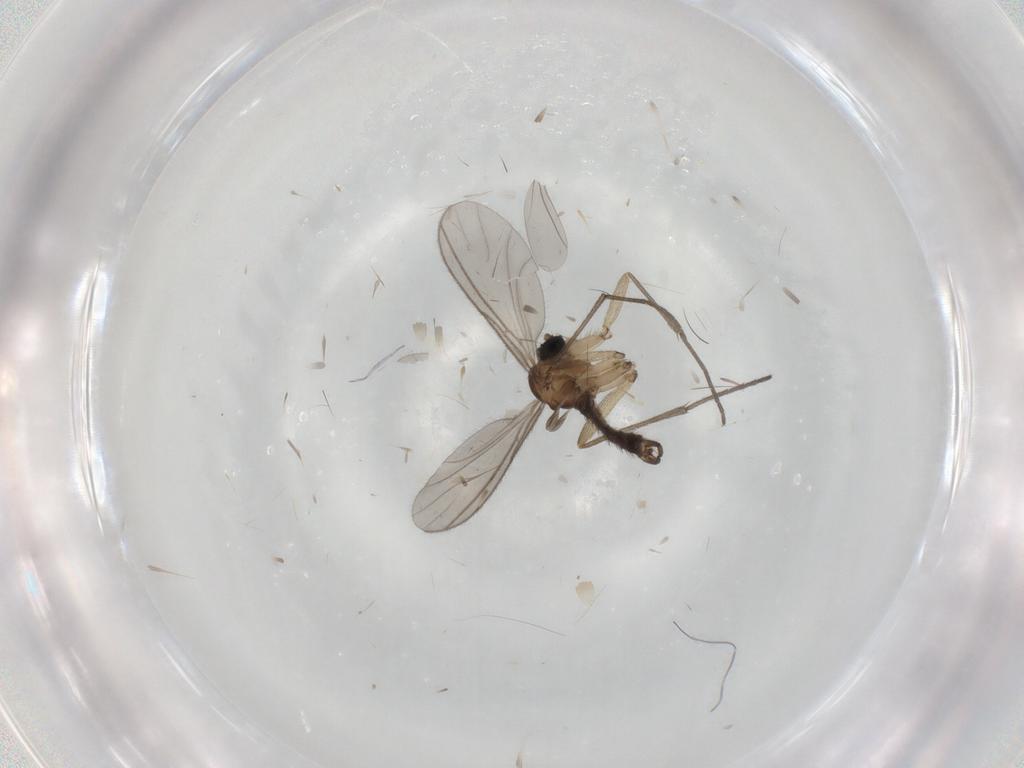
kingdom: Animalia
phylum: Arthropoda
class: Insecta
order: Diptera
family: Sciaridae
